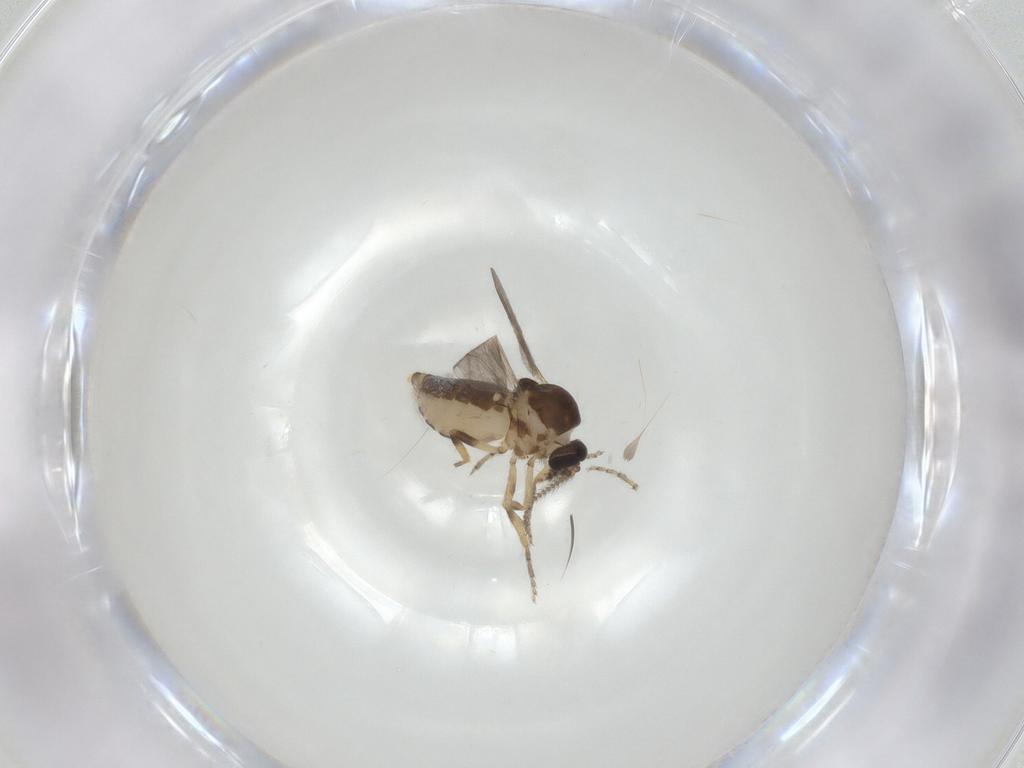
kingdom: Animalia
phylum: Arthropoda
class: Insecta
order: Diptera
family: Ceratopogonidae
